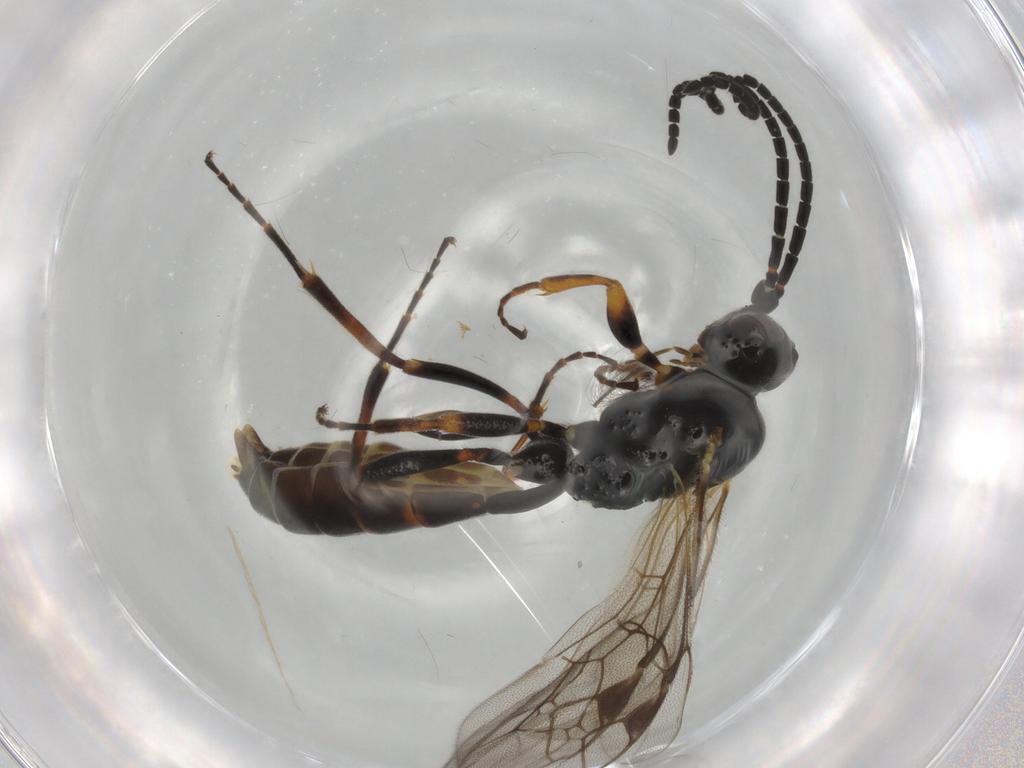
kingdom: Animalia
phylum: Arthropoda
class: Insecta
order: Hymenoptera
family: Ichneumonidae
